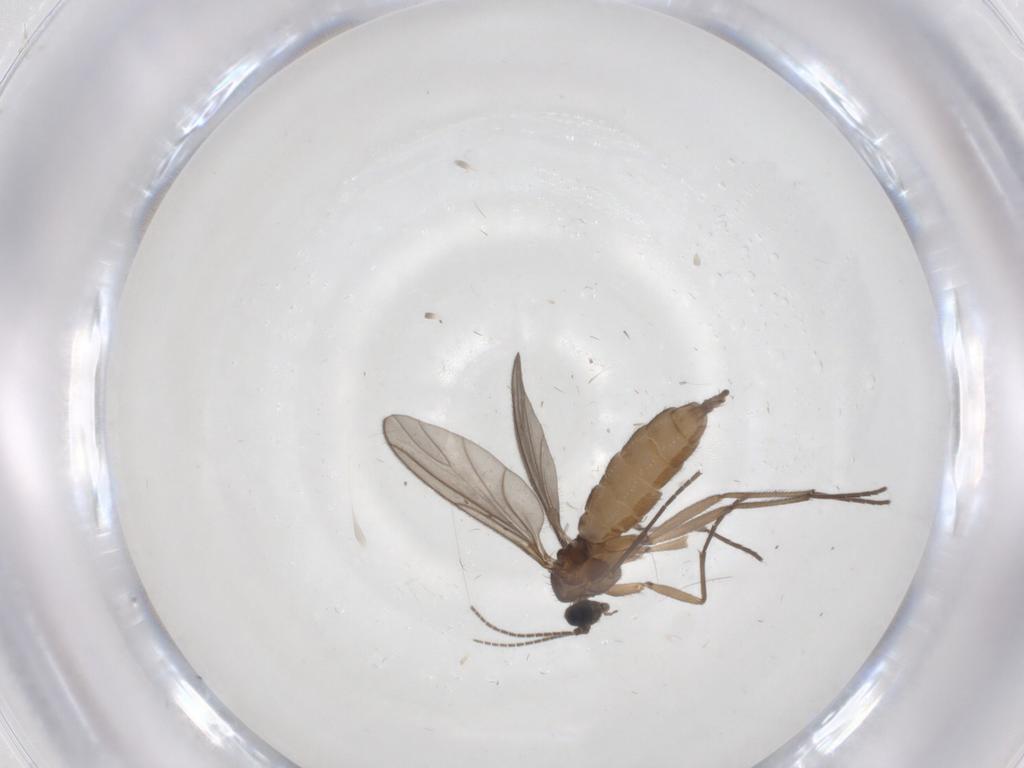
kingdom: Animalia
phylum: Arthropoda
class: Insecta
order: Diptera
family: Sciaridae
